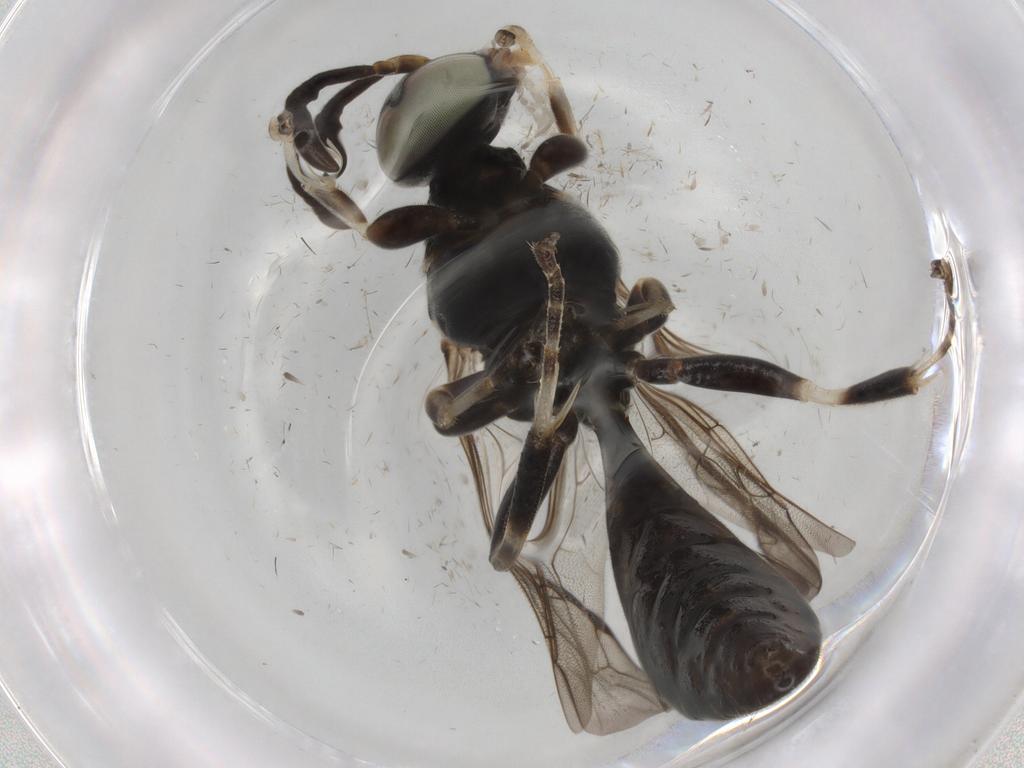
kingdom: Animalia
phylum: Arthropoda
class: Insecta
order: Hymenoptera
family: Crabronidae
